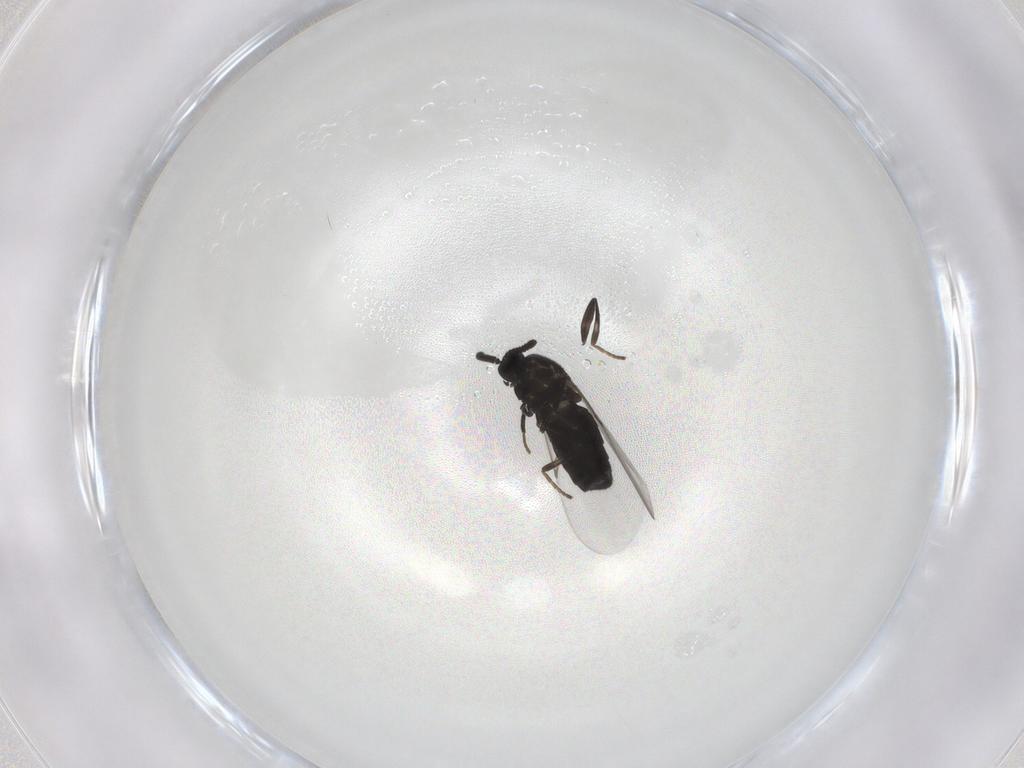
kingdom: Animalia
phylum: Arthropoda
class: Insecta
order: Diptera
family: Scatopsidae
